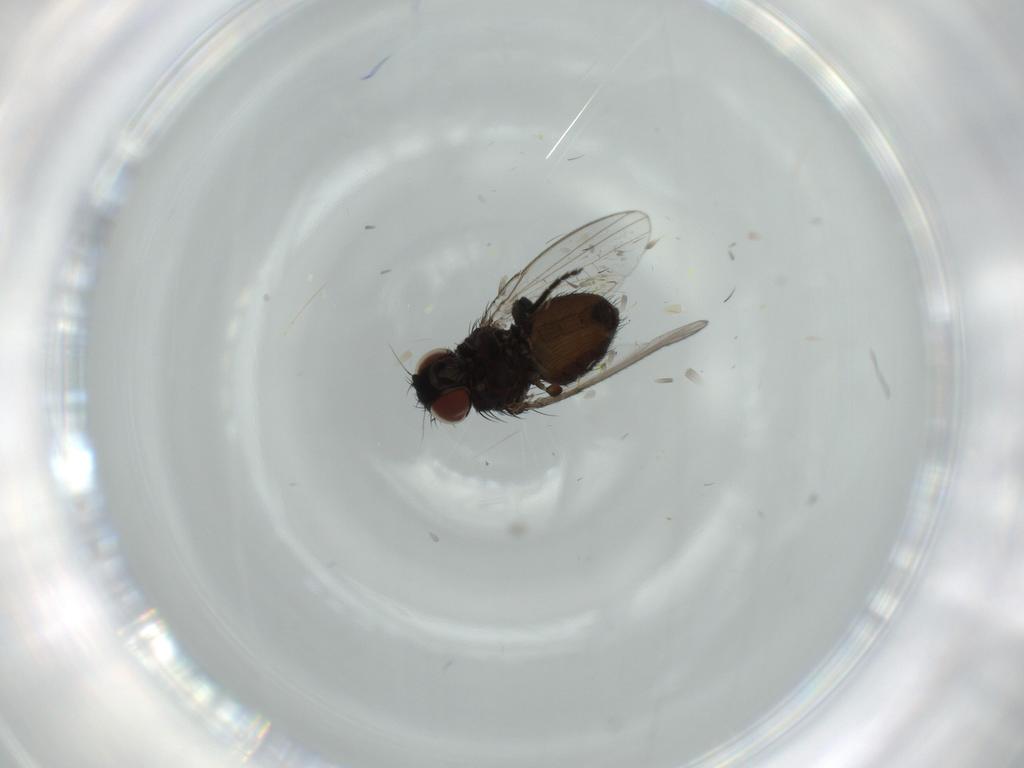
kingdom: Animalia
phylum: Arthropoda
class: Insecta
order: Diptera
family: Milichiidae
